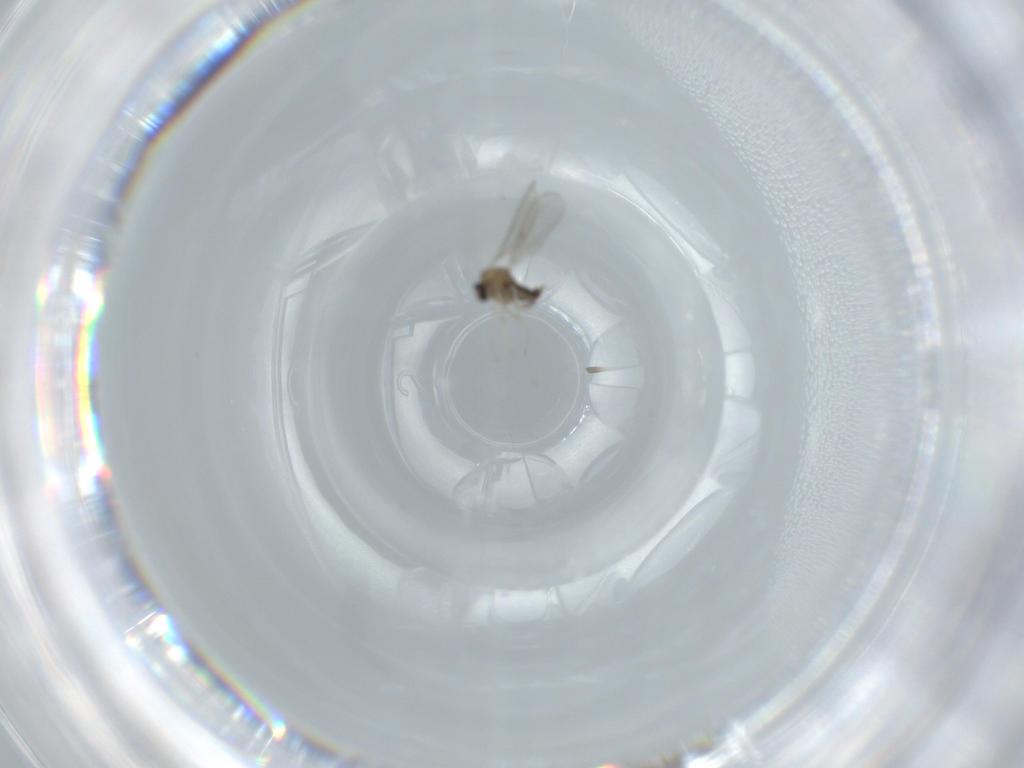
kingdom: Animalia
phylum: Arthropoda
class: Insecta
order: Diptera
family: Cecidomyiidae
